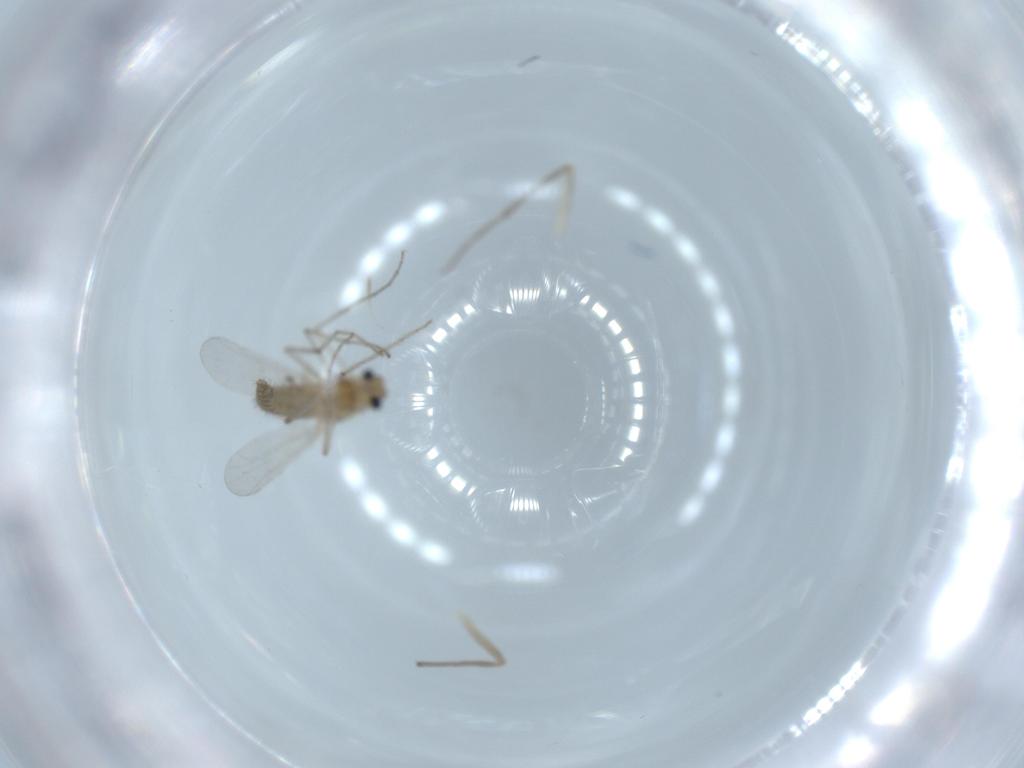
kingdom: Animalia
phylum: Arthropoda
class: Insecta
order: Diptera
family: Chironomidae
